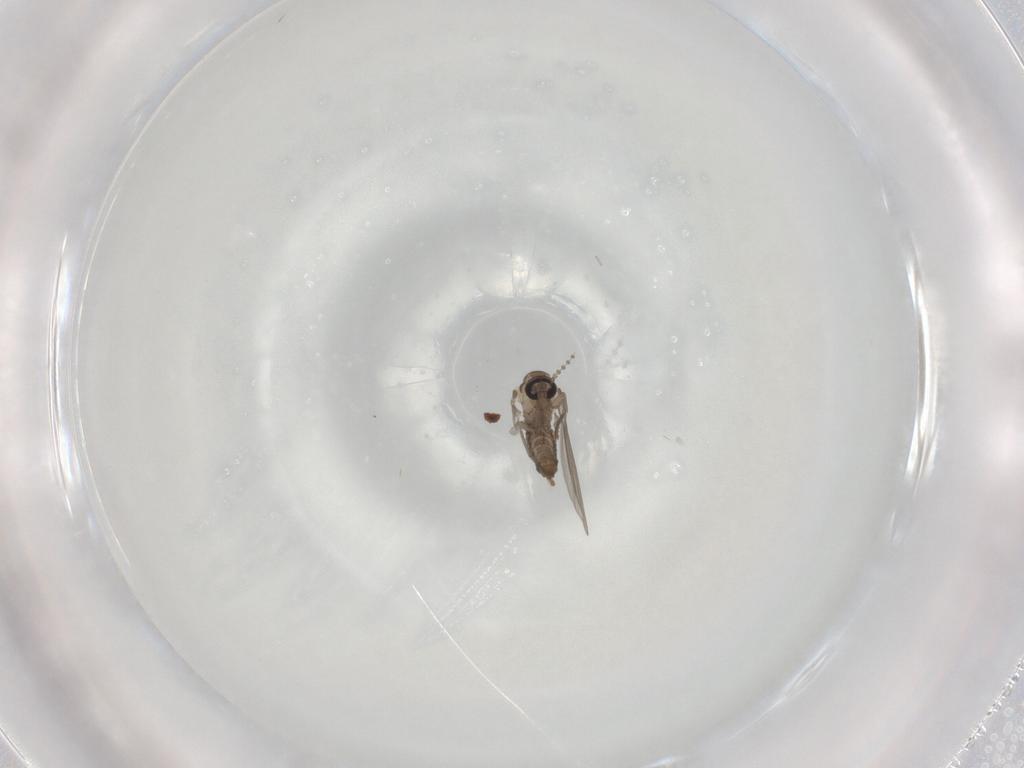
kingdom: Animalia
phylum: Arthropoda
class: Insecta
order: Diptera
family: Psychodidae
